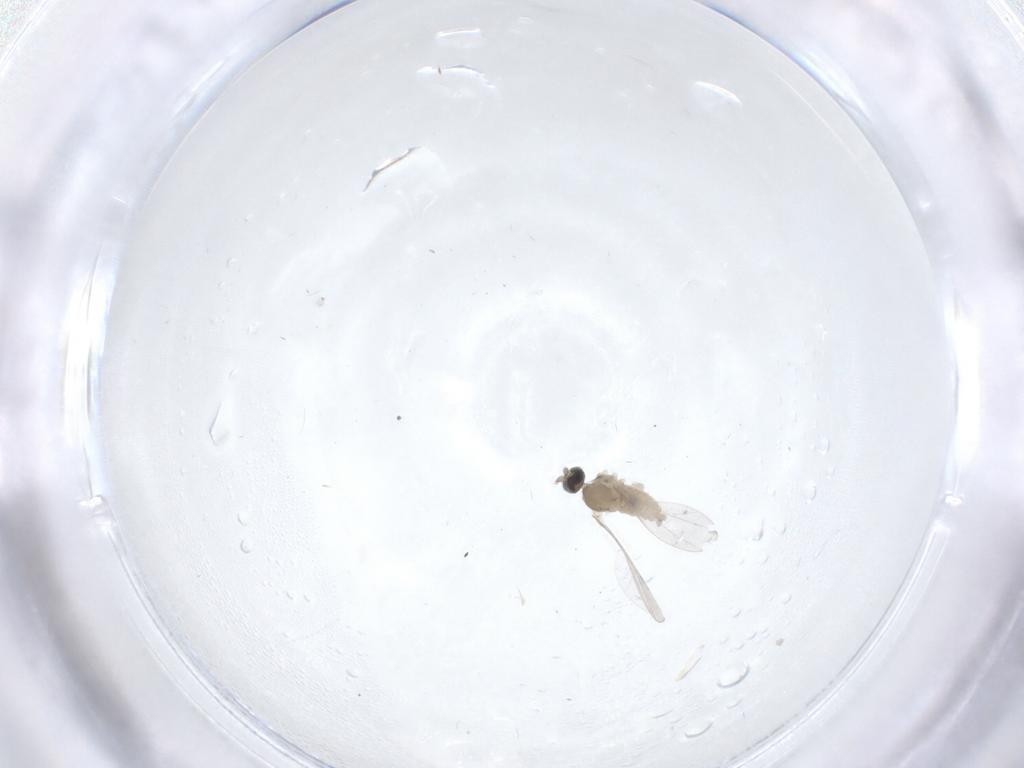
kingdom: Animalia
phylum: Arthropoda
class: Insecta
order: Diptera
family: Cecidomyiidae
